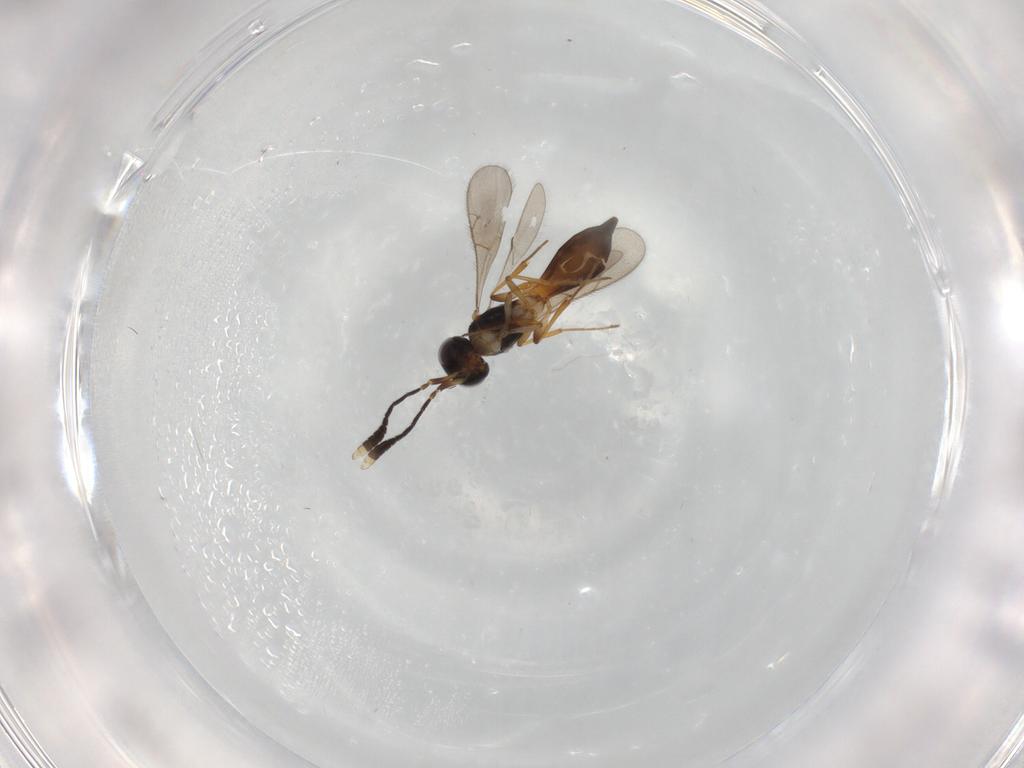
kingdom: Animalia
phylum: Arthropoda
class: Insecta
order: Hymenoptera
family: Scelionidae
